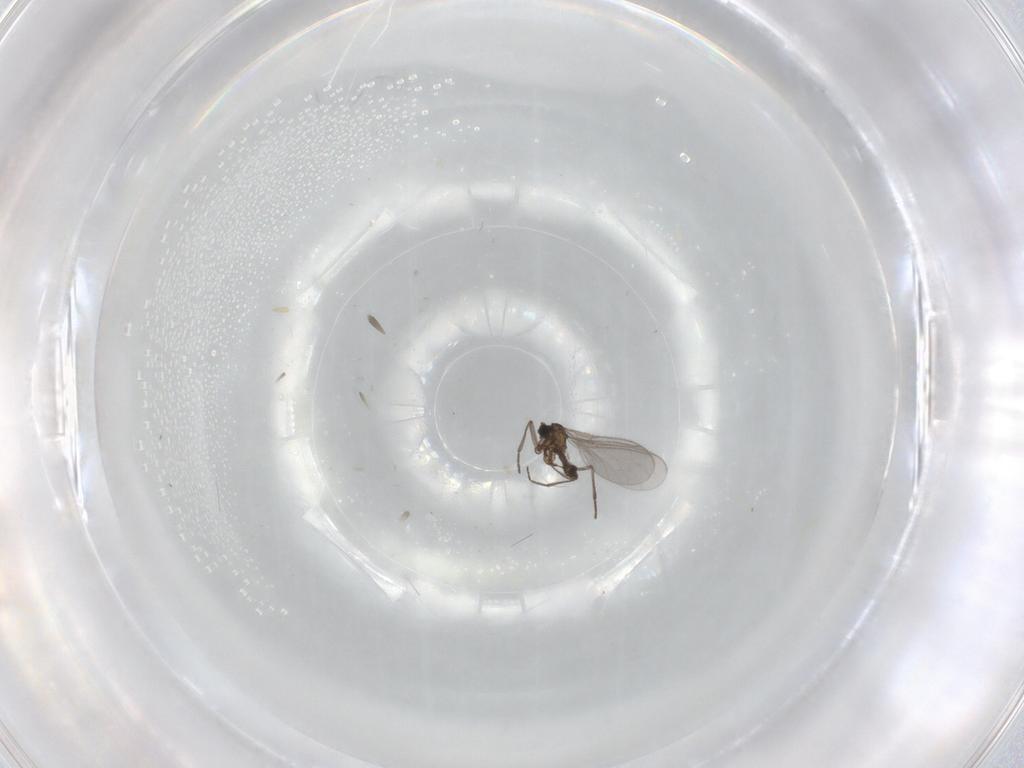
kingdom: Animalia
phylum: Arthropoda
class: Insecta
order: Diptera
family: Sciaridae
